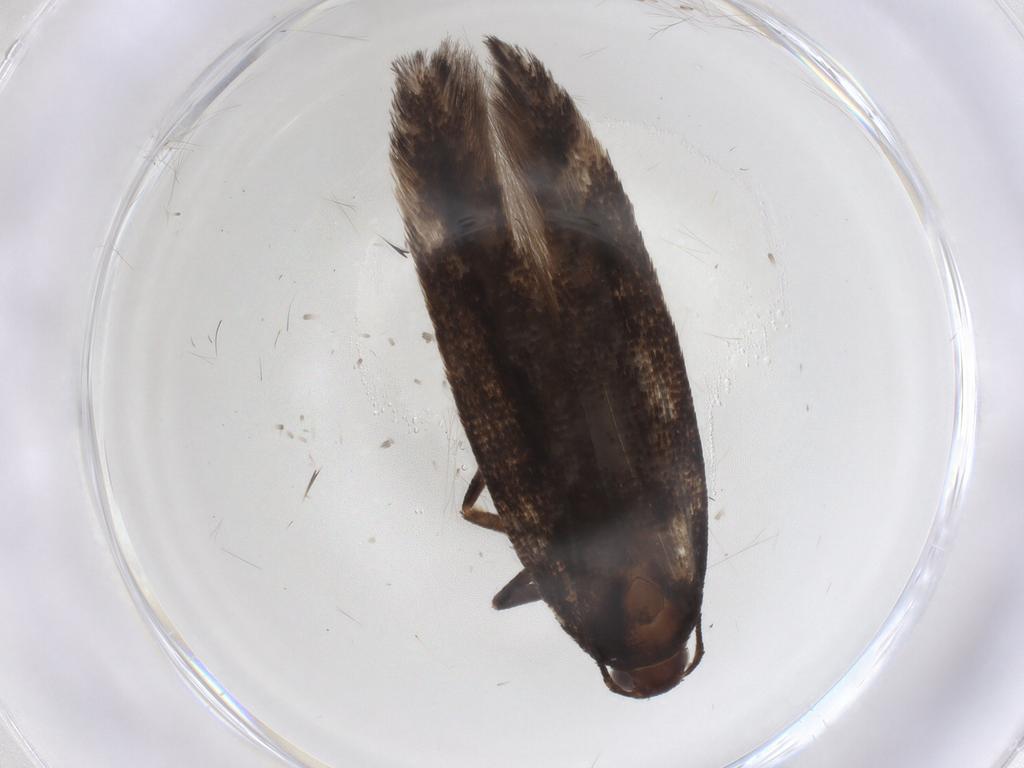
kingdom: Animalia
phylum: Arthropoda
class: Insecta
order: Lepidoptera
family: Gelechiidae
